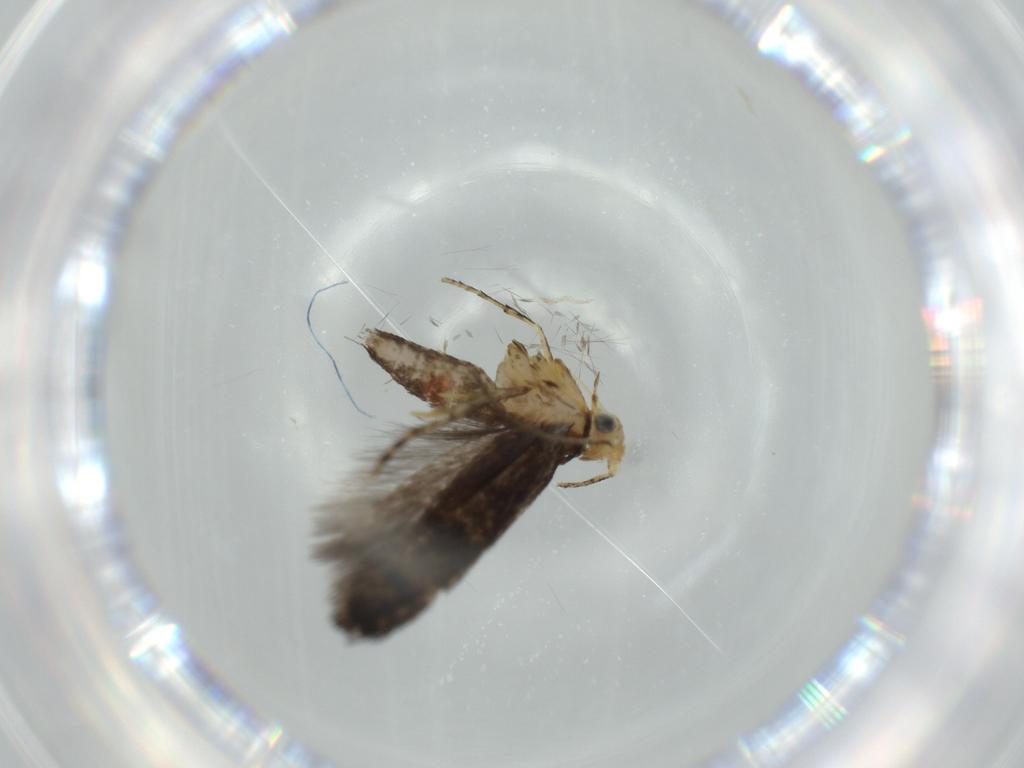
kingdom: Animalia
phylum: Arthropoda
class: Insecta
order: Lepidoptera
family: Argyresthiidae
